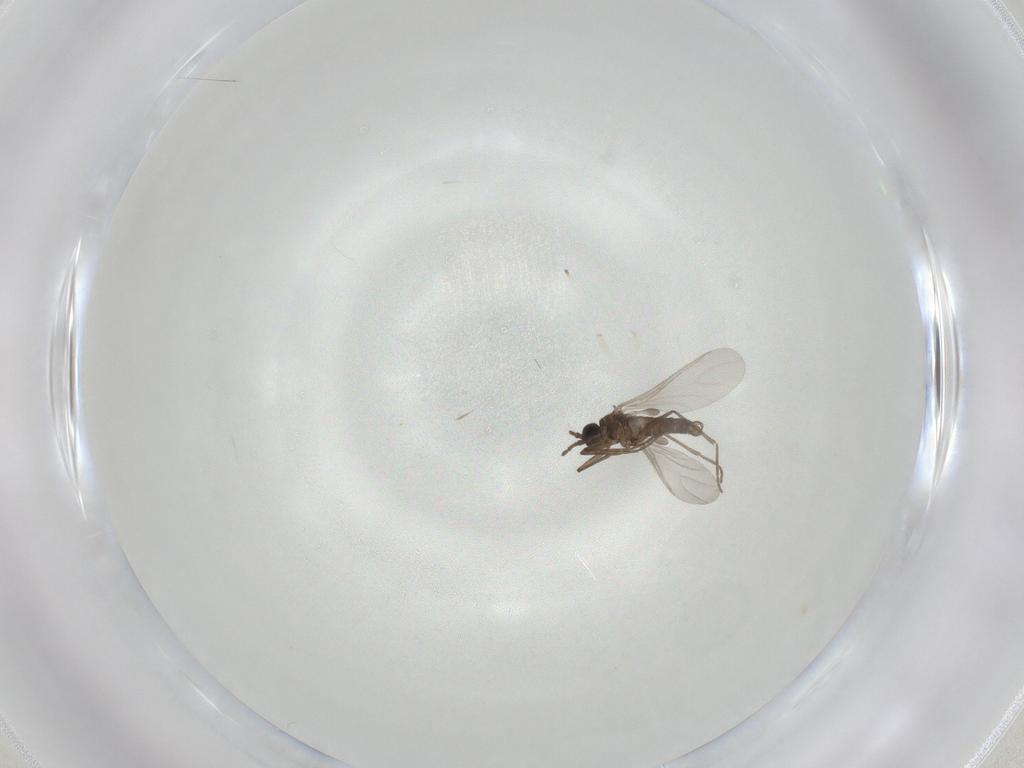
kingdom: Animalia
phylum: Arthropoda
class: Insecta
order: Diptera
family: Sciaridae
